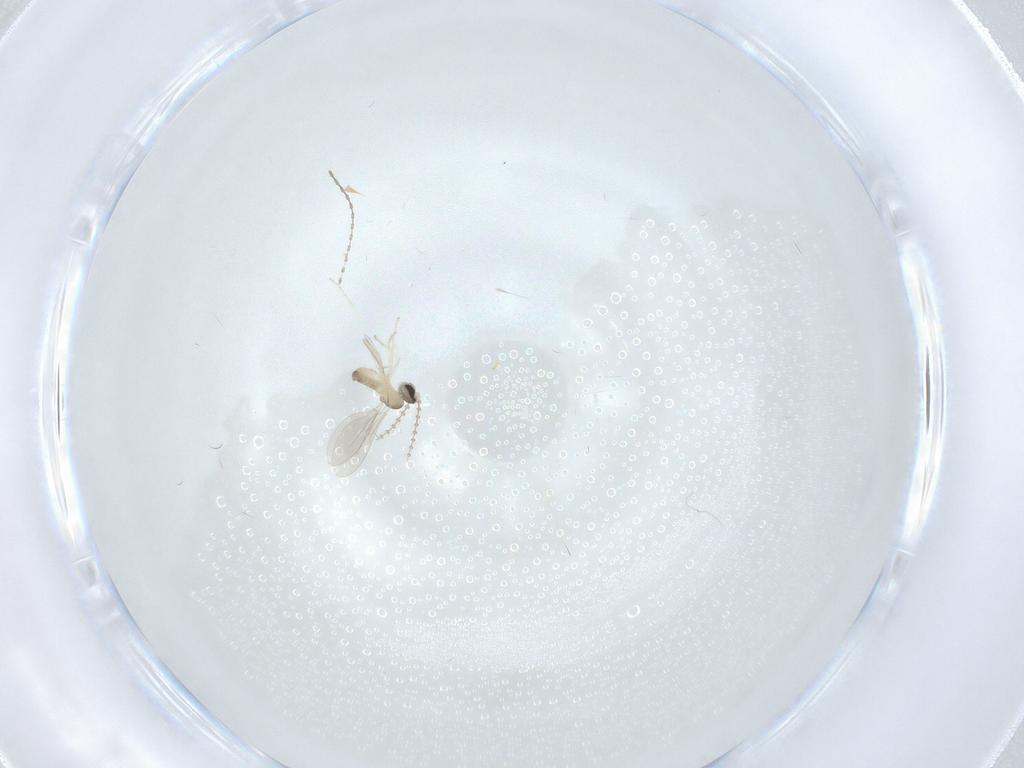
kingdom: Animalia
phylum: Arthropoda
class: Insecta
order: Diptera
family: Cecidomyiidae
